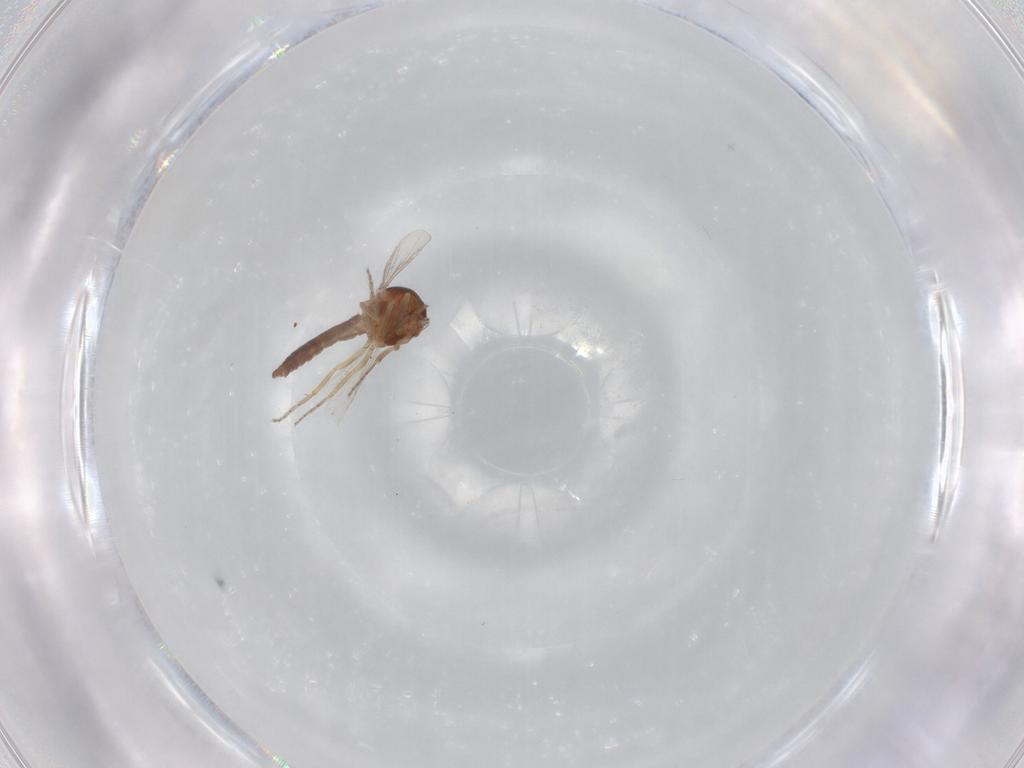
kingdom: Animalia
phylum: Arthropoda
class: Insecta
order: Diptera
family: Ceratopogonidae
